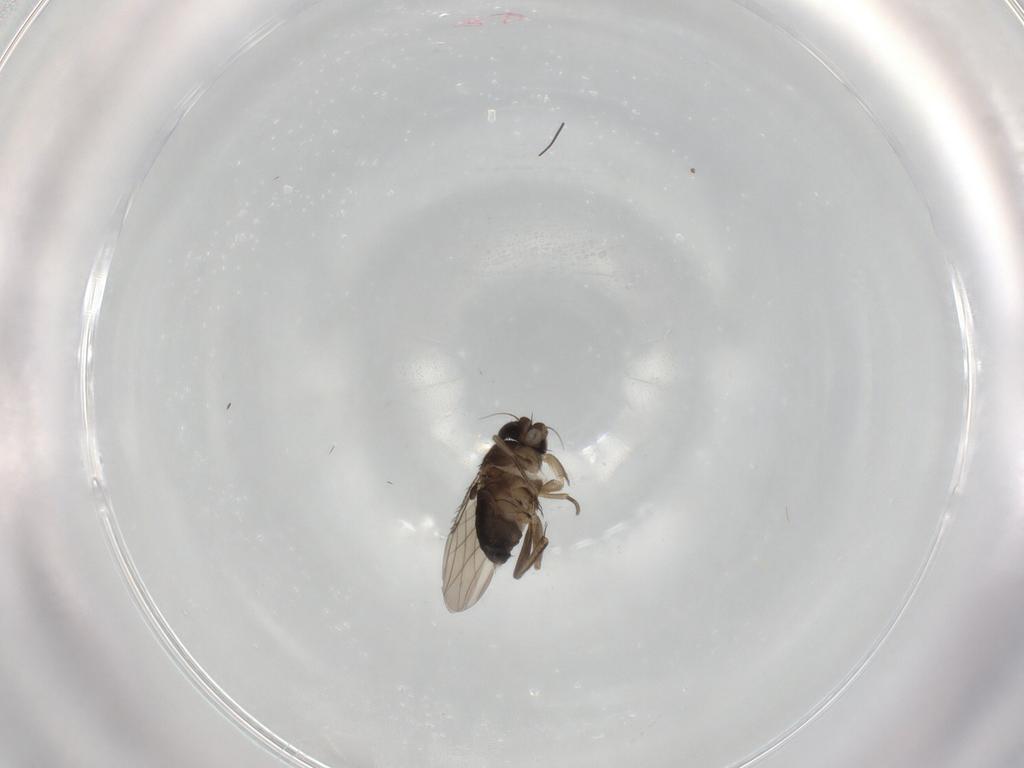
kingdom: Animalia
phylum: Arthropoda
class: Insecta
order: Diptera
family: Phoridae
